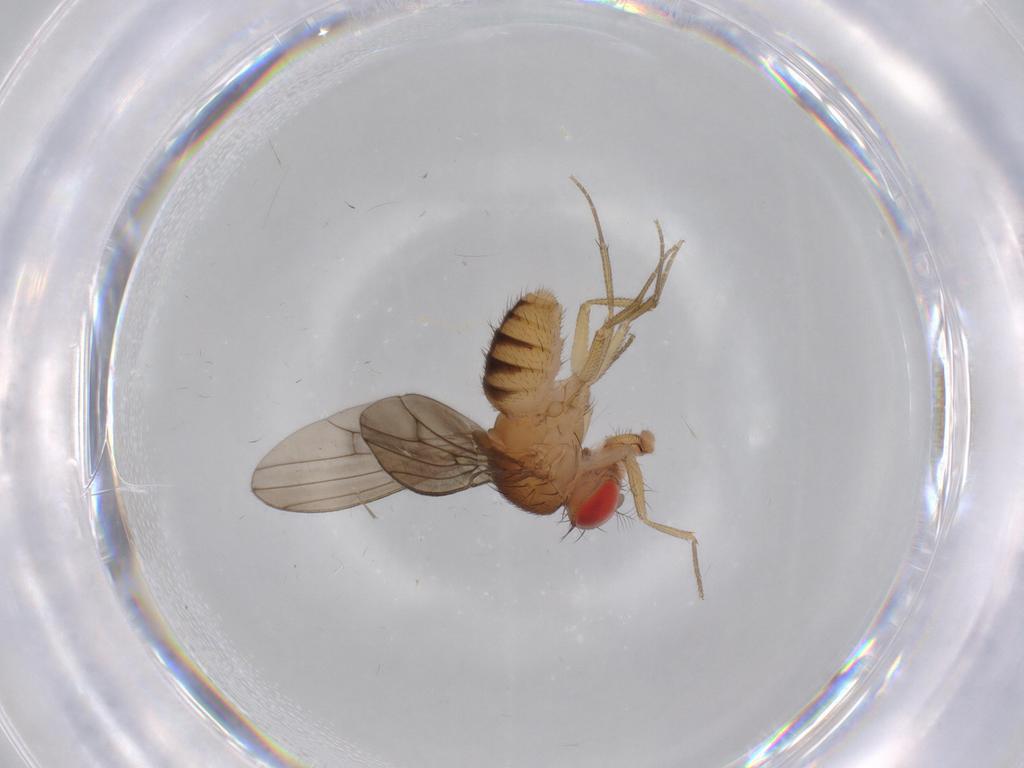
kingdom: Animalia
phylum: Arthropoda
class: Insecta
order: Diptera
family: Drosophilidae
